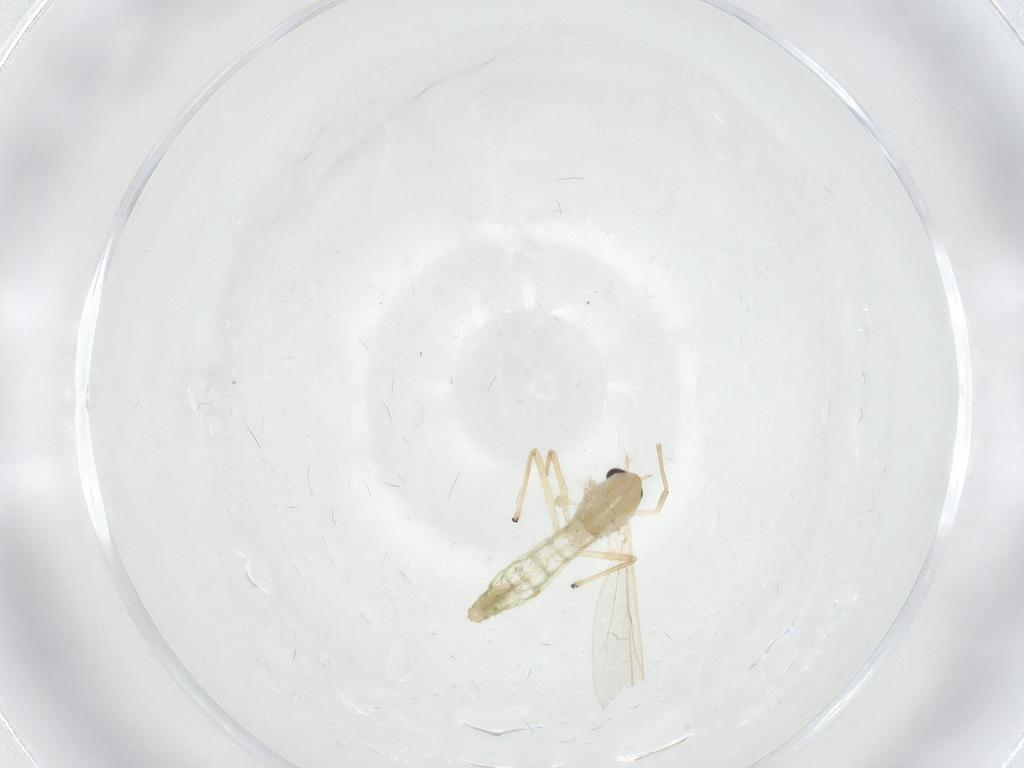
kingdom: Animalia
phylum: Arthropoda
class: Insecta
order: Diptera
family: Chironomidae
